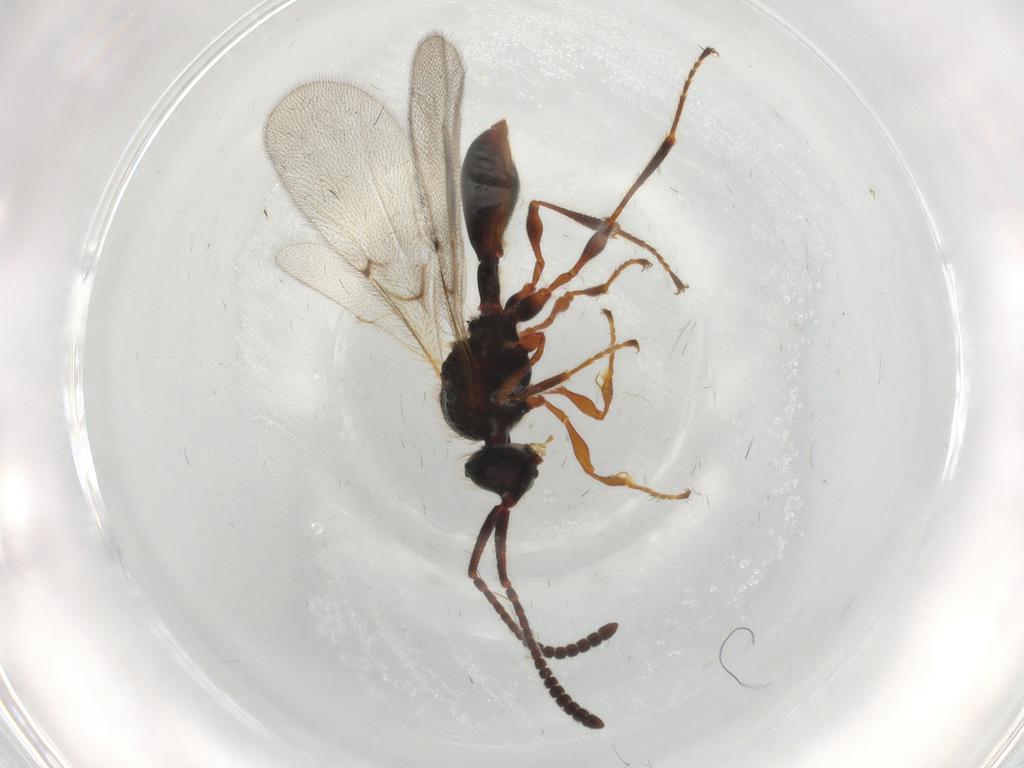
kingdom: Animalia
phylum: Arthropoda
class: Insecta
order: Hymenoptera
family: Diapriidae
